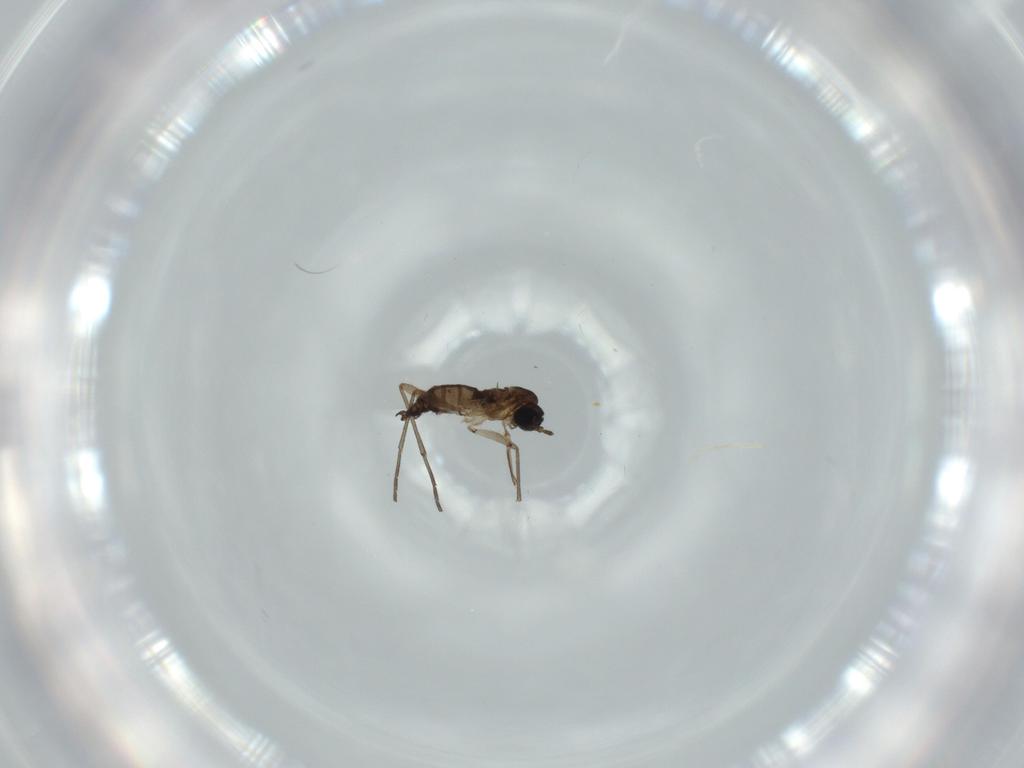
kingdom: Animalia
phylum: Arthropoda
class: Insecta
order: Diptera
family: Sciaridae
